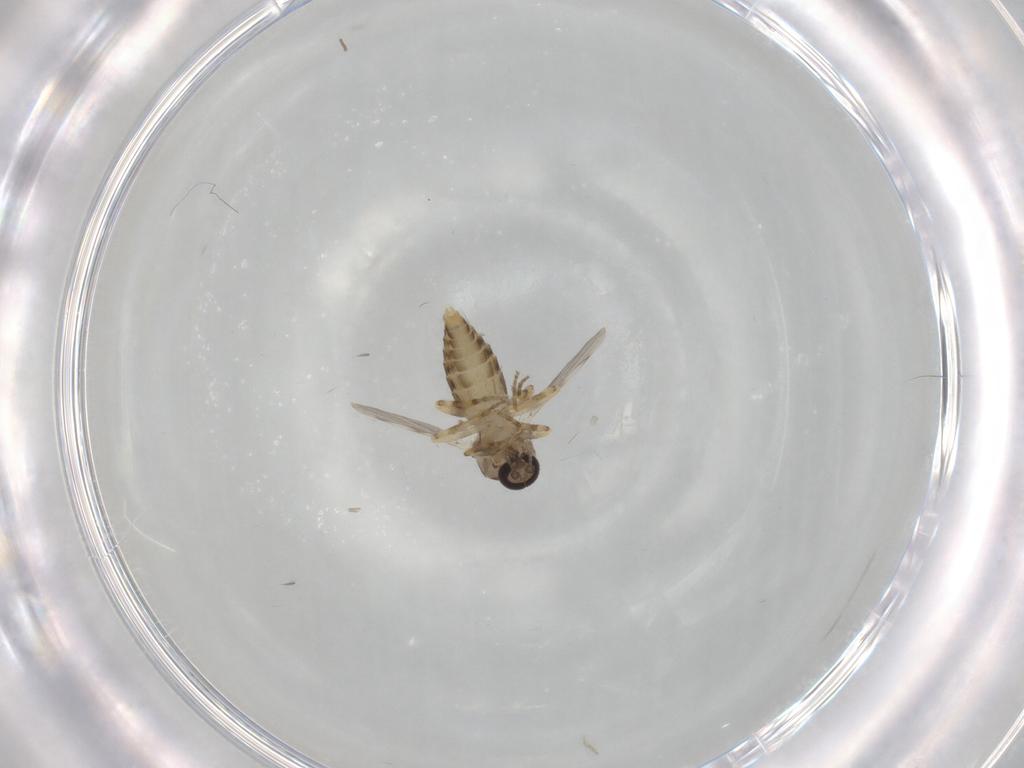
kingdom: Animalia
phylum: Arthropoda
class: Insecta
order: Diptera
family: Ceratopogonidae
